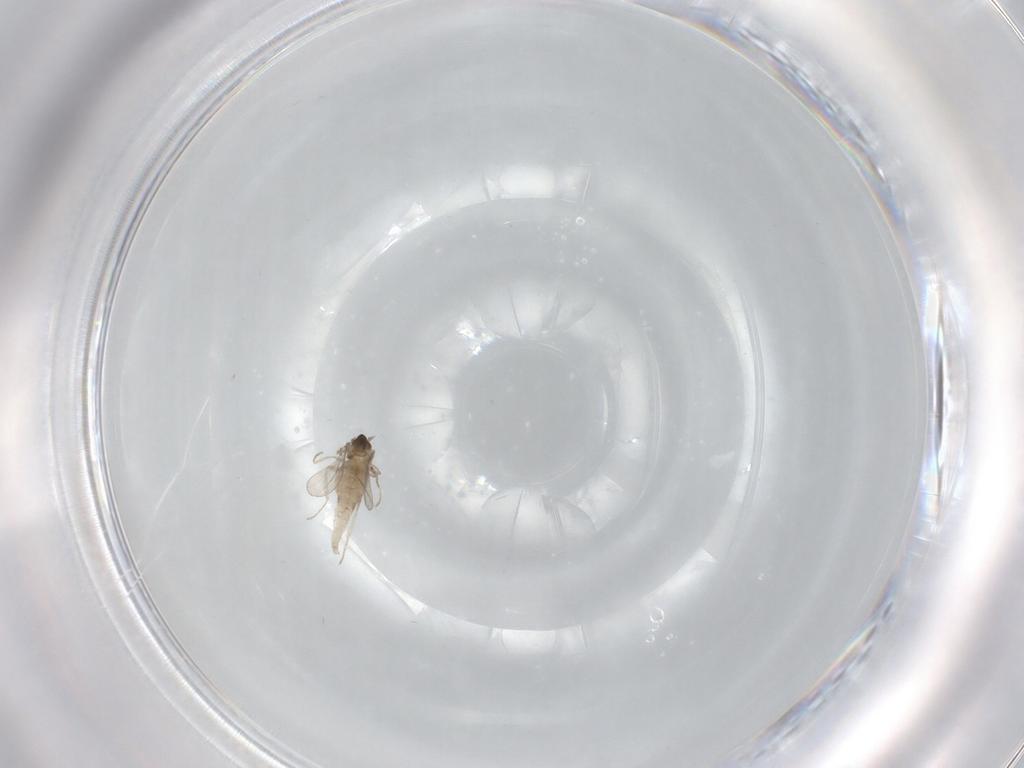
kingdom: Animalia
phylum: Arthropoda
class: Insecta
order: Diptera
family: Cecidomyiidae
